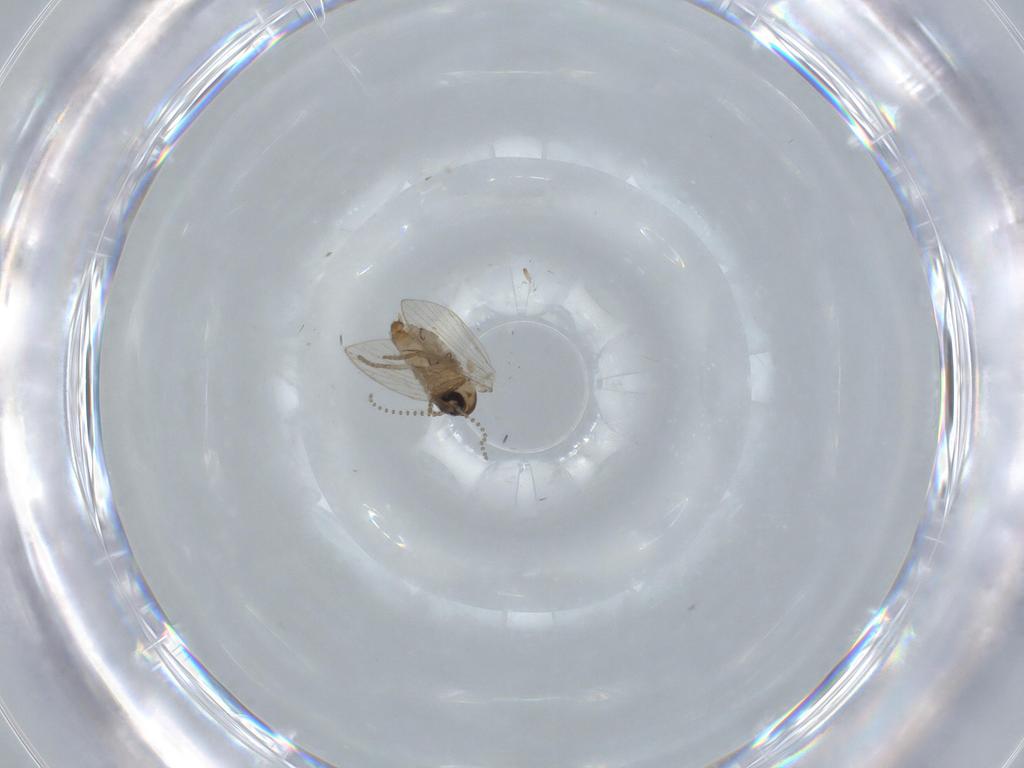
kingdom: Animalia
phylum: Arthropoda
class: Insecta
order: Diptera
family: Psychodidae
